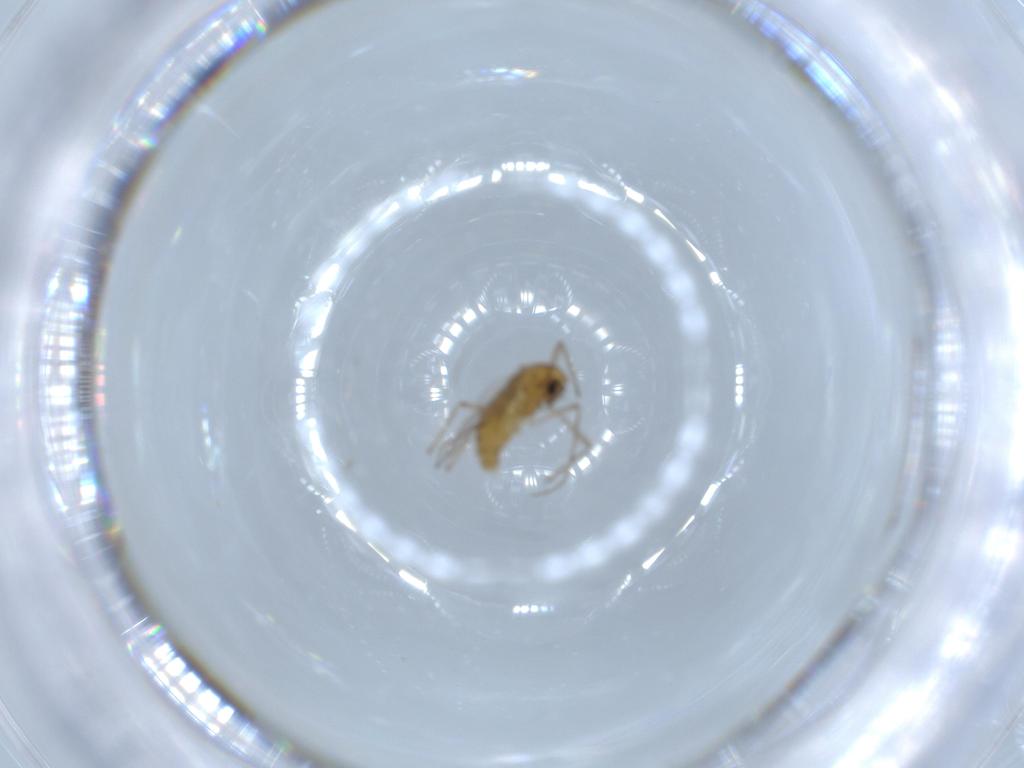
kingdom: Animalia
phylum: Arthropoda
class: Insecta
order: Diptera
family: Chironomidae
